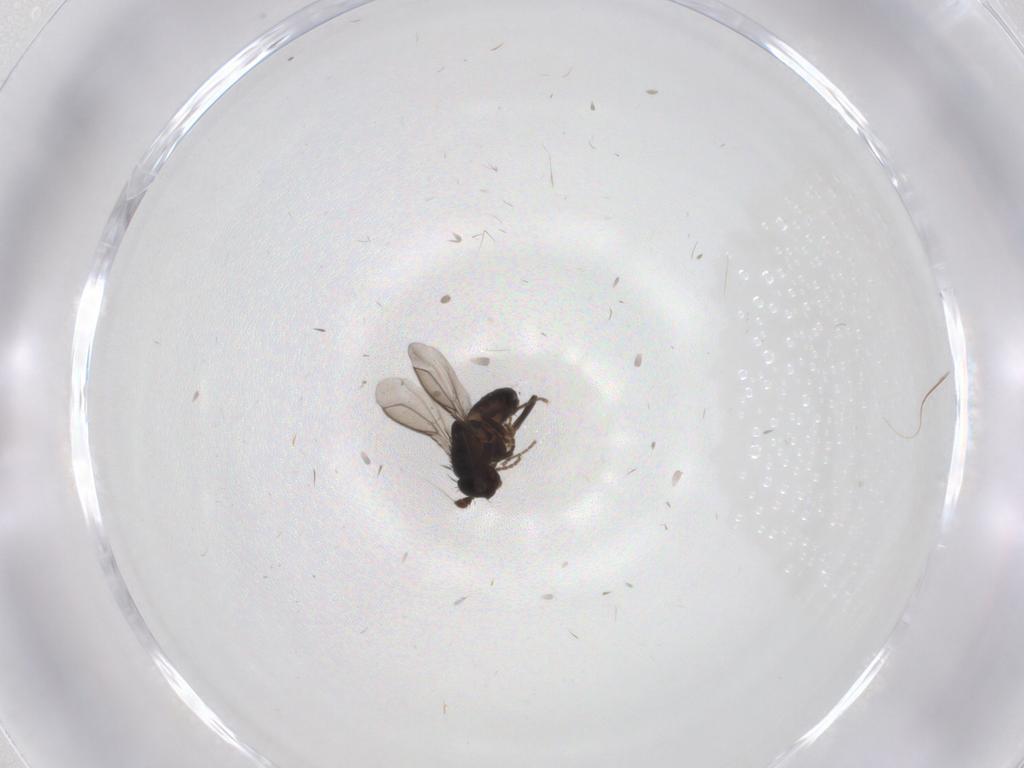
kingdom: Animalia
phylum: Arthropoda
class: Insecta
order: Diptera
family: Sphaeroceridae
